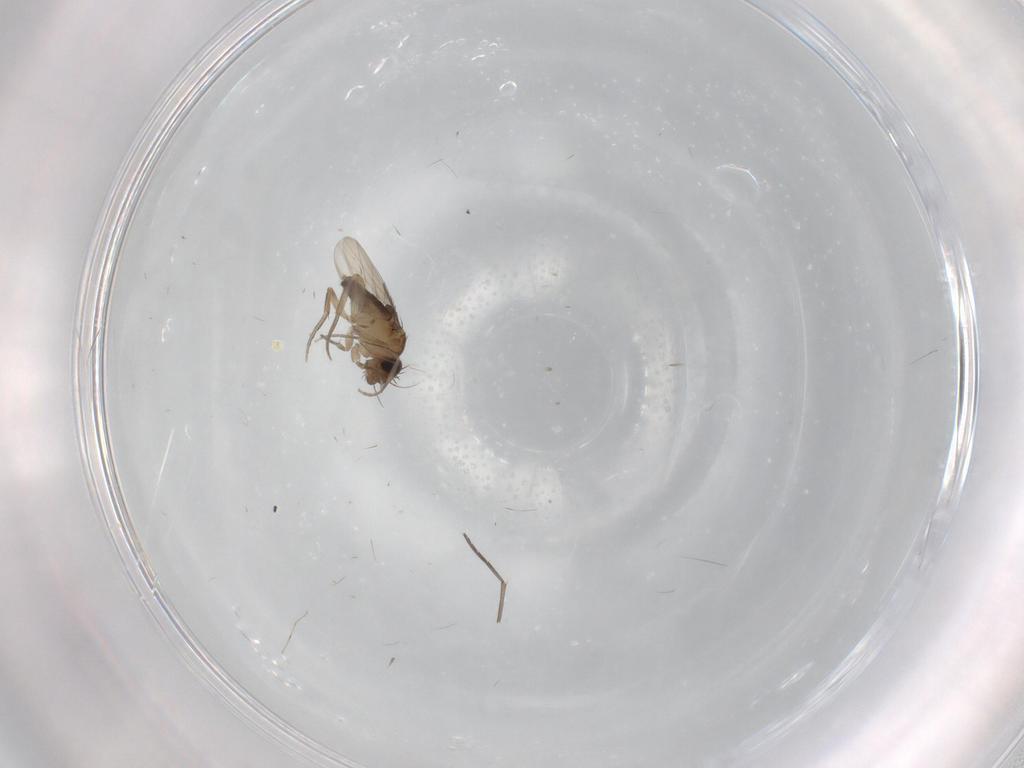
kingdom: Animalia
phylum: Arthropoda
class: Insecta
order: Diptera
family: Phoridae
